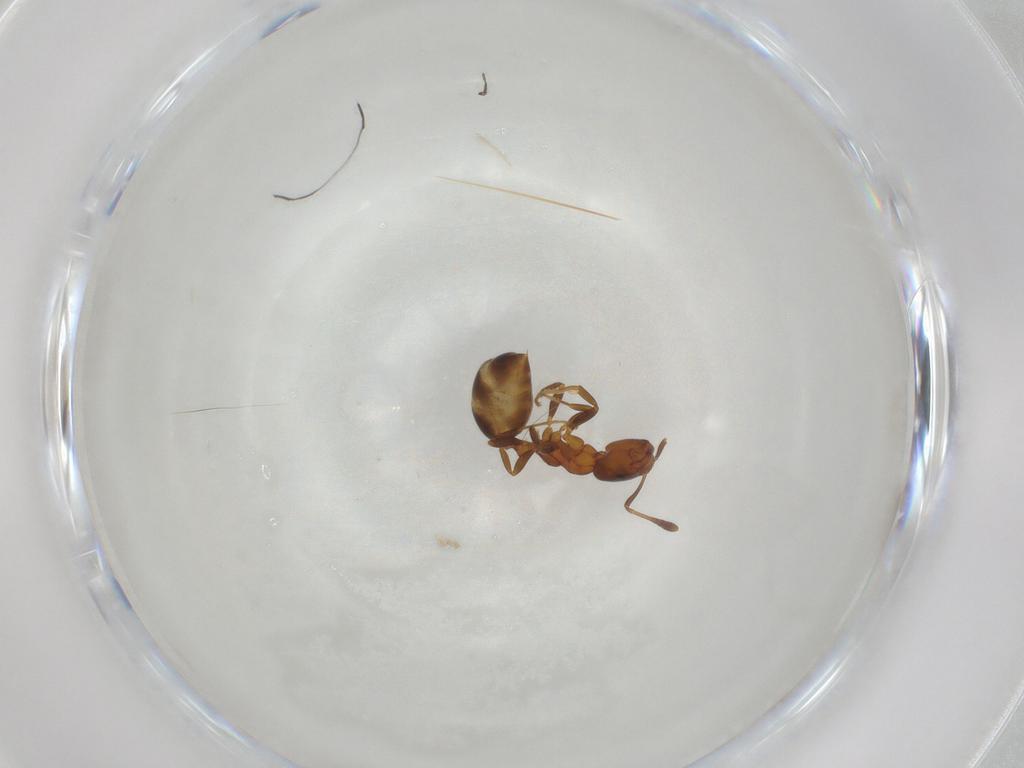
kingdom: Animalia
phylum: Arthropoda
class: Insecta
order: Hymenoptera
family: Formicidae
